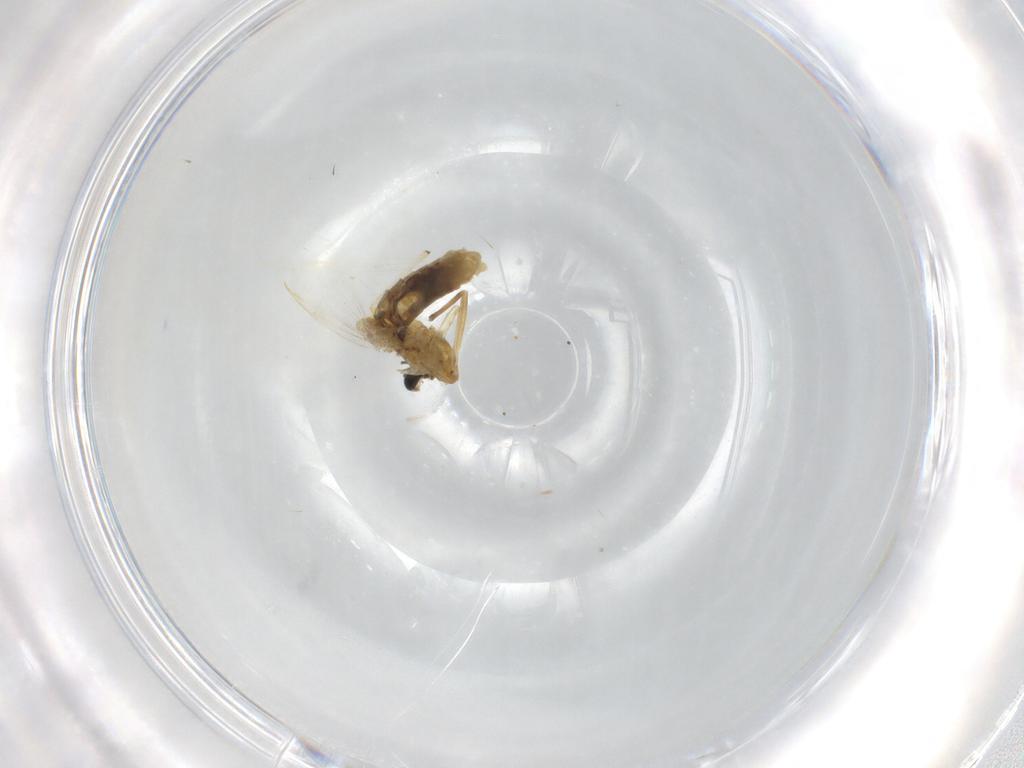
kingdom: Animalia
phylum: Arthropoda
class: Insecta
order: Diptera
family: Chironomidae
